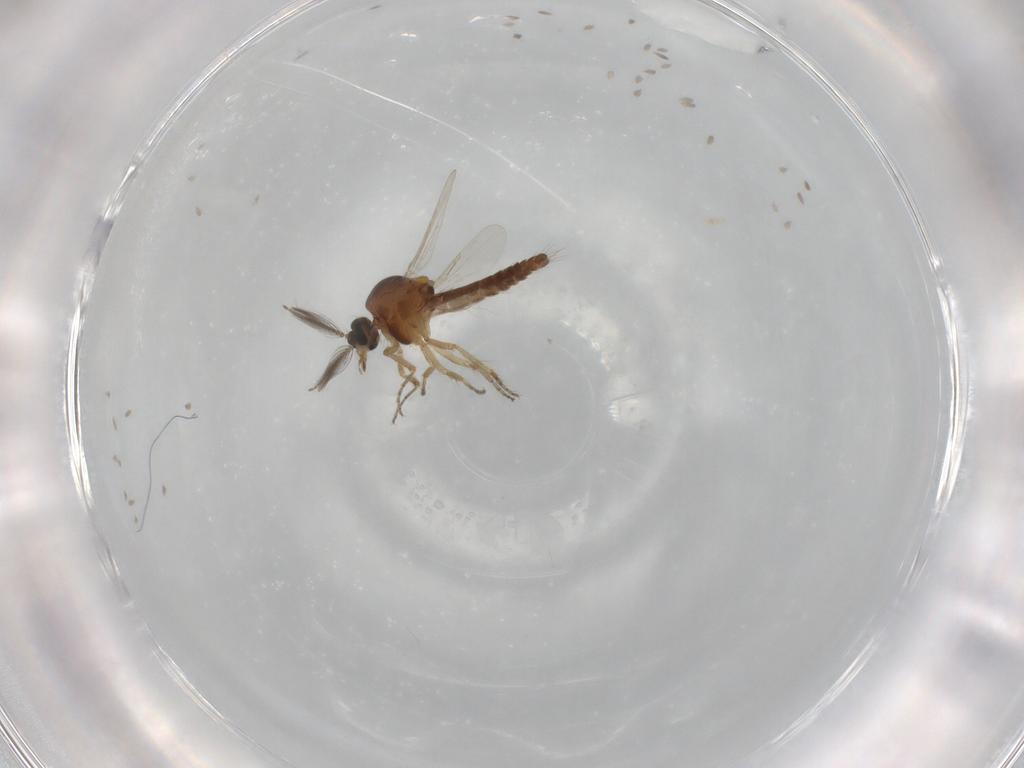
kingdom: Animalia
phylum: Arthropoda
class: Insecta
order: Diptera
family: Ceratopogonidae
